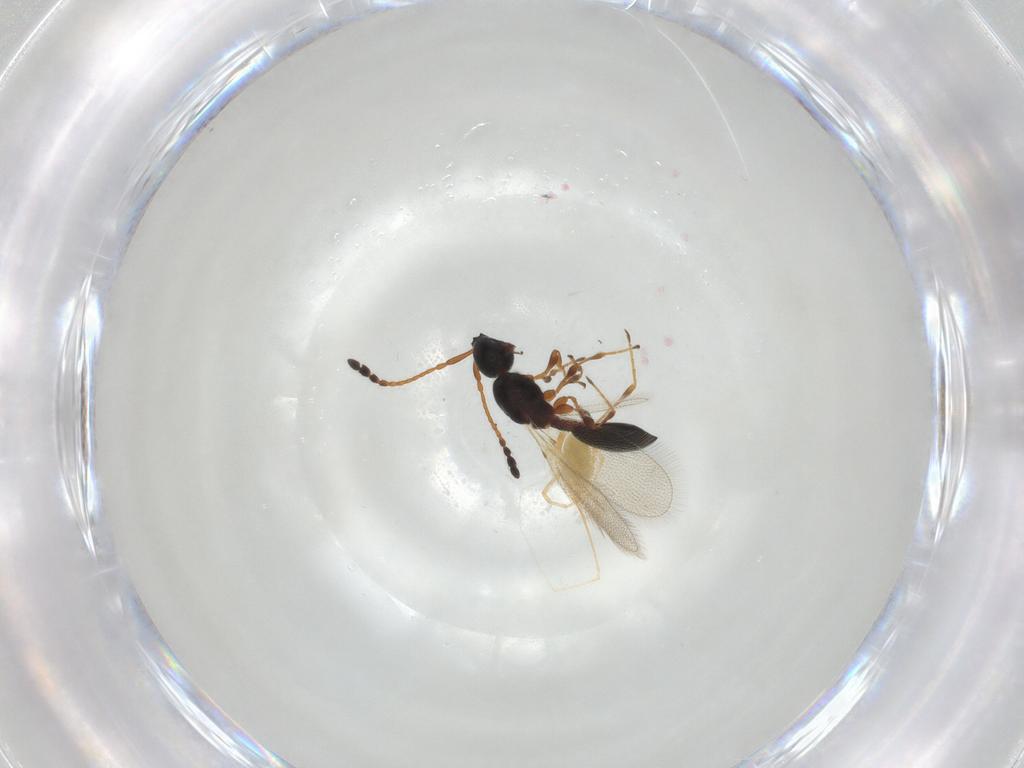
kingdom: Animalia
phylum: Arthropoda
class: Insecta
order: Hymenoptera
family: Diapriidae
